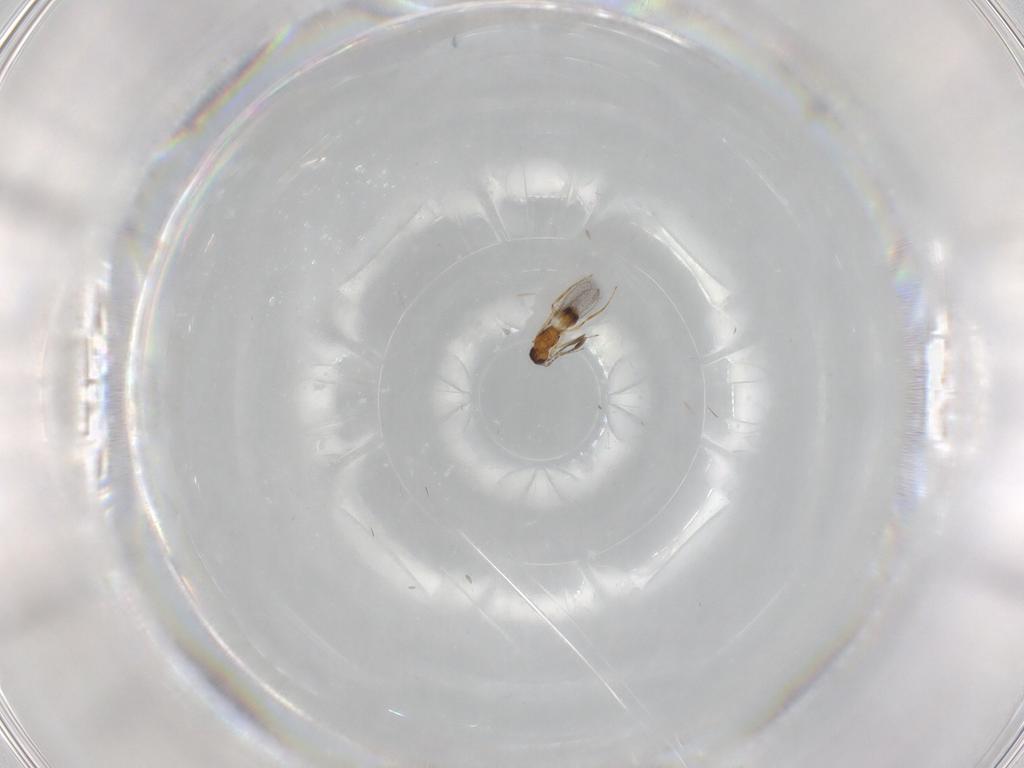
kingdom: Animalia
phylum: Arthropoda
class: Insecta
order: Hymenoptera
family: Mymaridae
